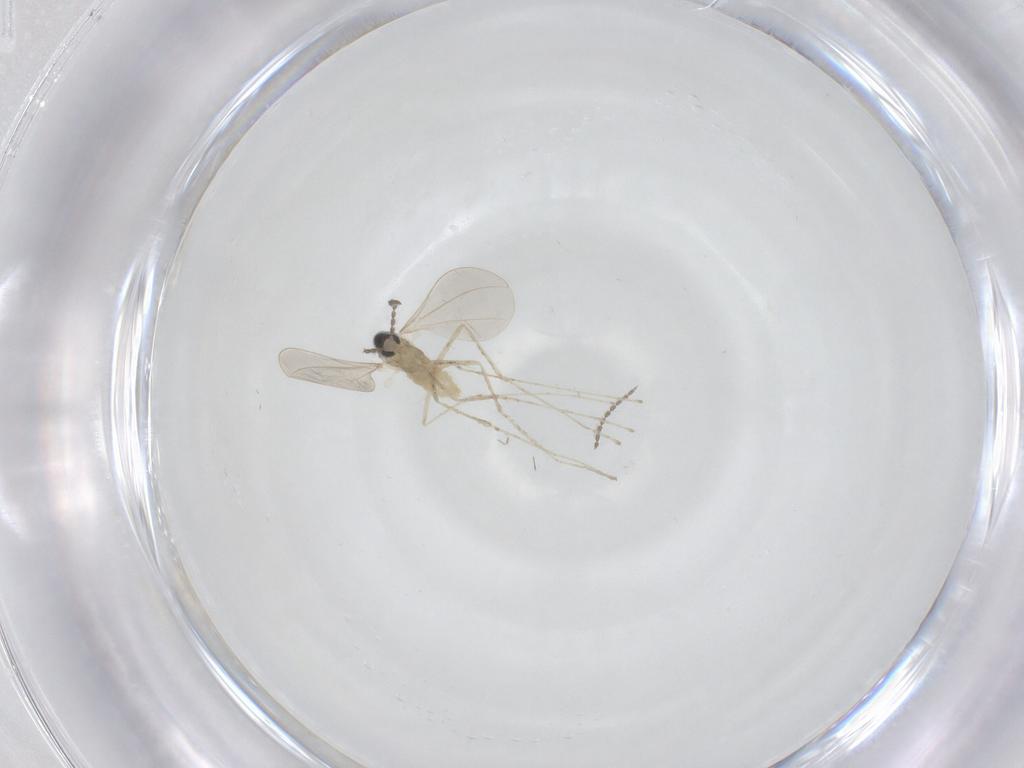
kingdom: Animalia
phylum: Arthropoda
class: Insecta
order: Diptera
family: Cecidomyiidae
